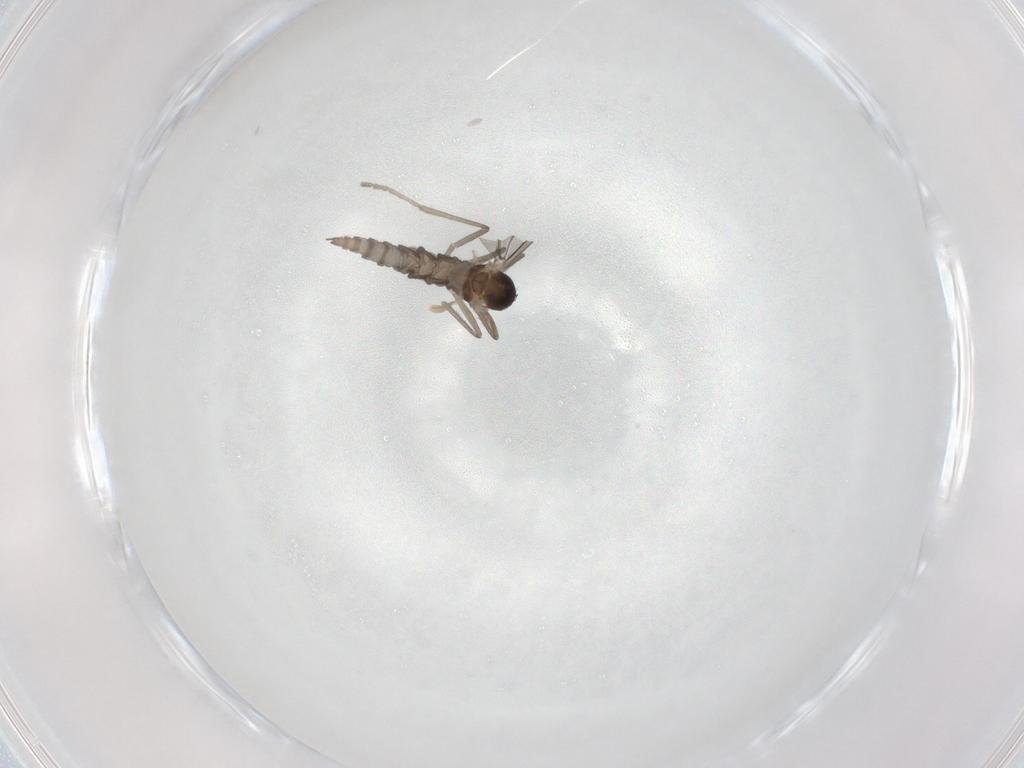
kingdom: Animalia
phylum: Arthropoda
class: Insecta
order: Diptera
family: Cecidomyiidae
